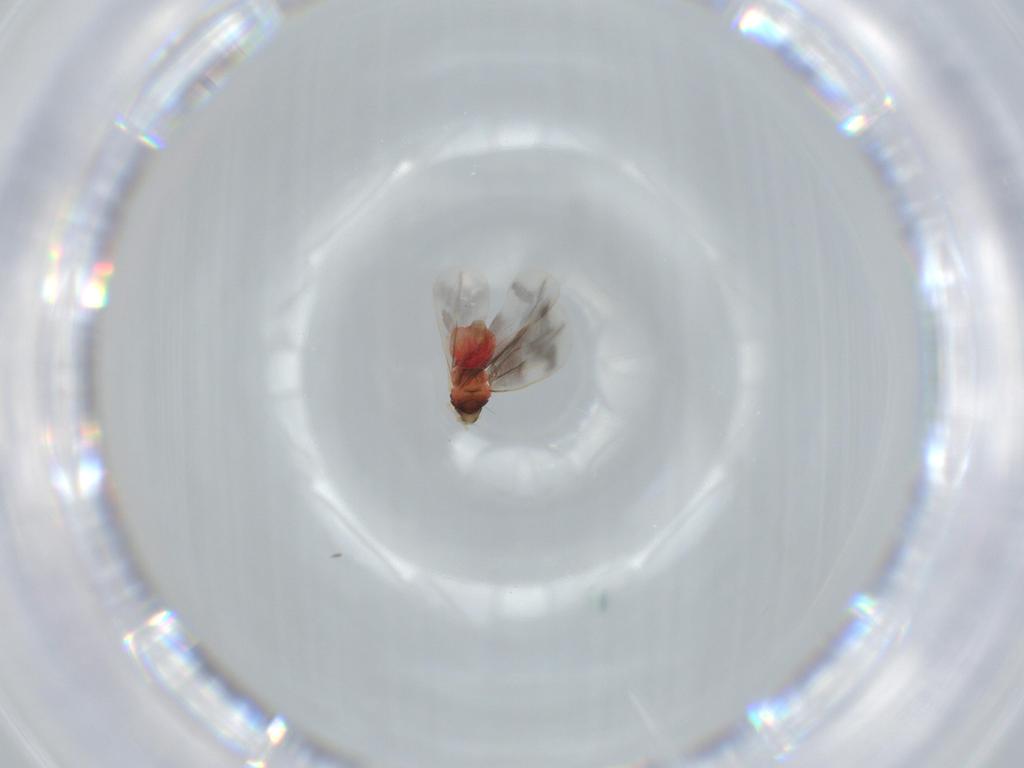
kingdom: Animalia
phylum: Arthropoda
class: Insecta
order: Hemiptera
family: Aleyrodidae
